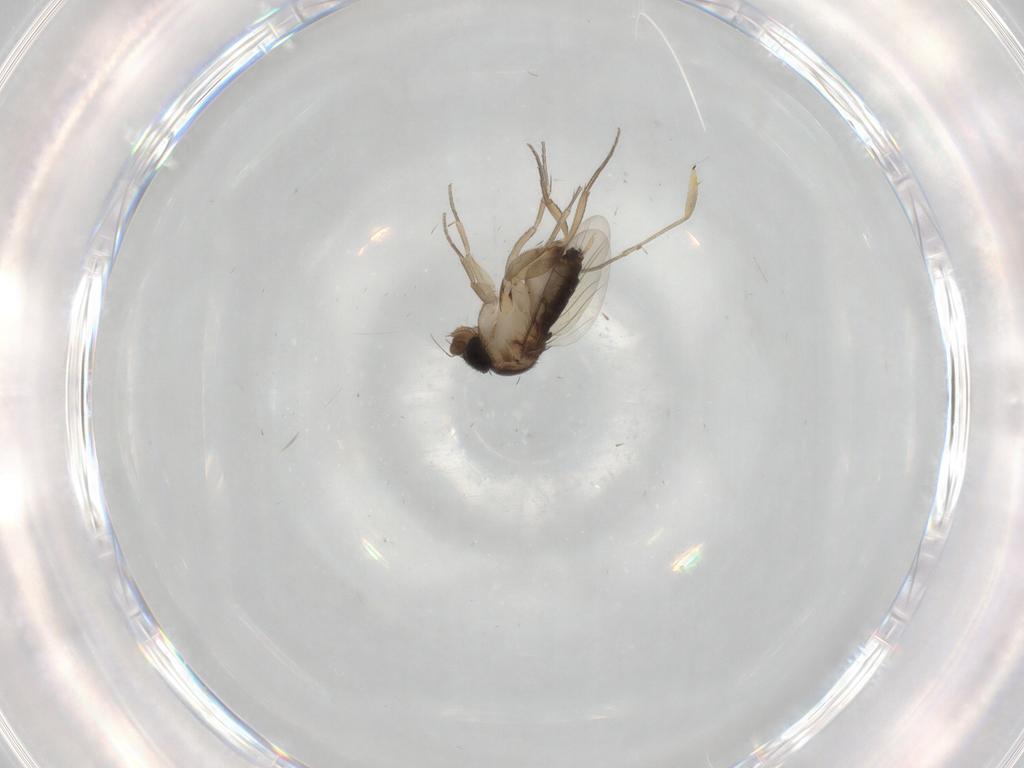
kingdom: Animalia
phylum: Arthropoda
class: Insecta
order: Diptera
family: Phoridae
